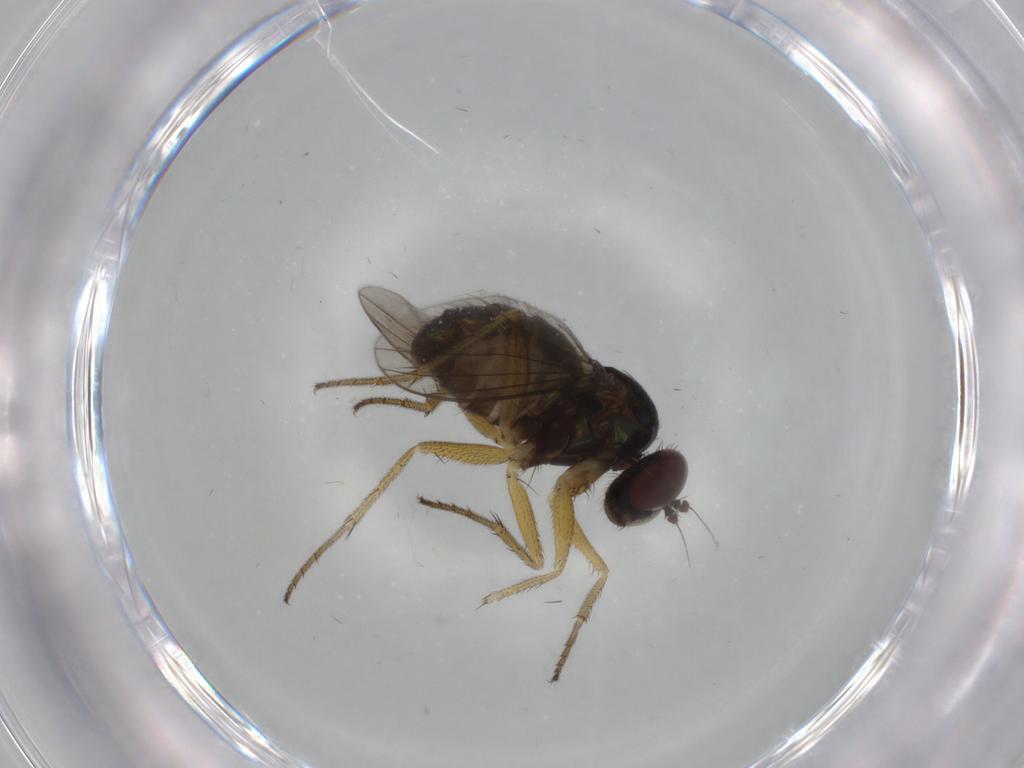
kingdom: Animalia
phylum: Arthropoda
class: Insecta
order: Diptera
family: Dolichopodidae
